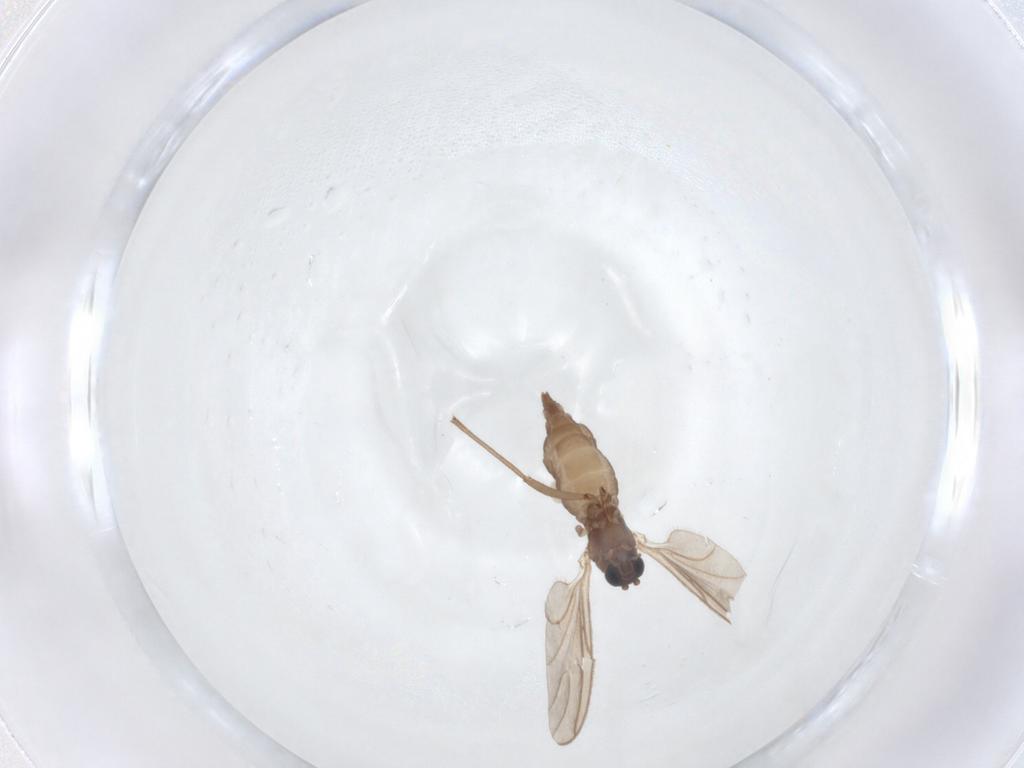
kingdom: Animalia
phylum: Arthropoda
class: Insecta
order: Diptera
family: Sciaridae
